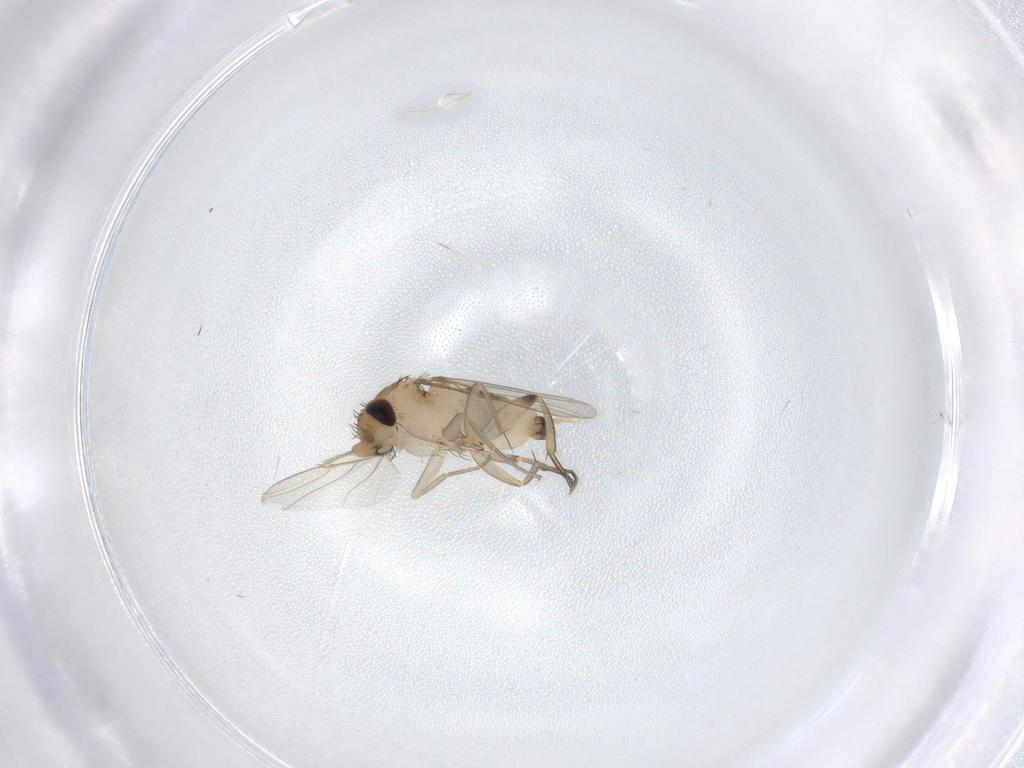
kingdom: Animalia
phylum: Arthropoda
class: Insecta
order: Diptera
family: Phoridae
